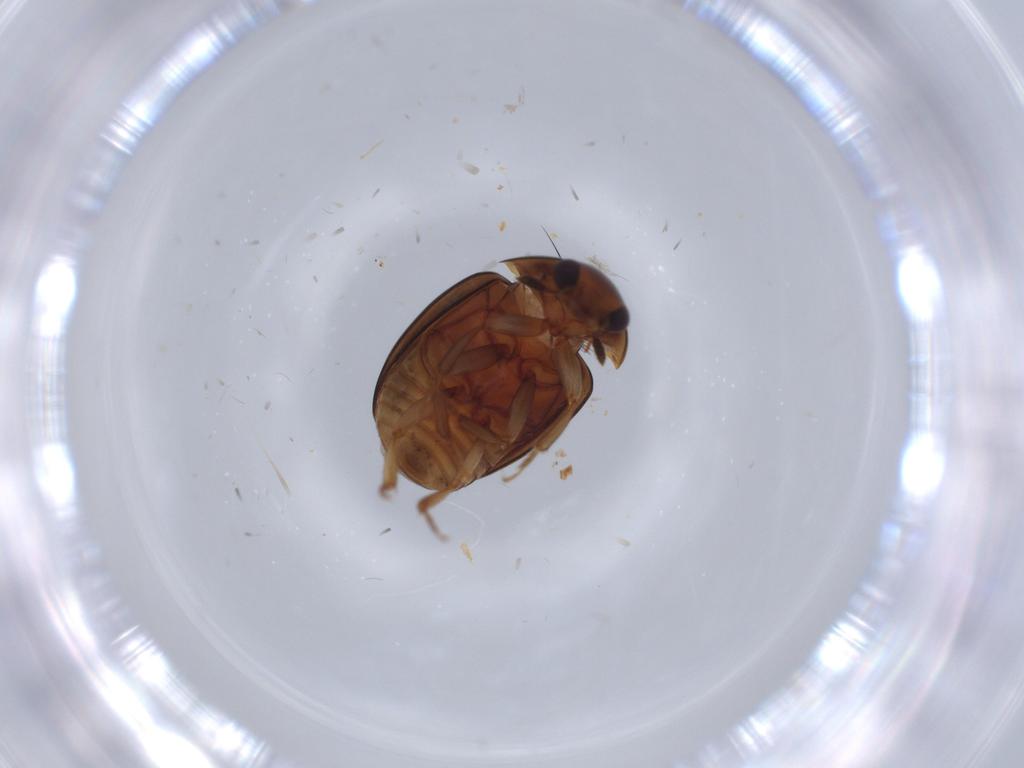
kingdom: Animalia
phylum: Arthropoda
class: Insecta
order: Coleoptera
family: Nitidulidae
